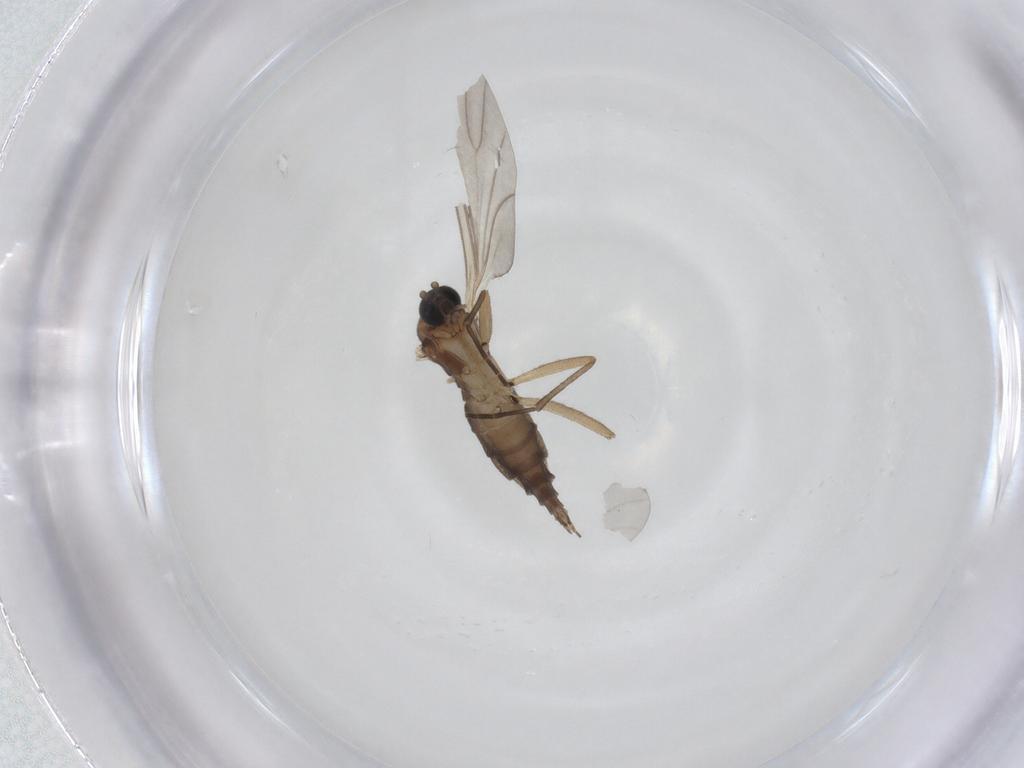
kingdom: Animalia
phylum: Arthropoda
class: Insecta
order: Diptera
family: Sciaridae
